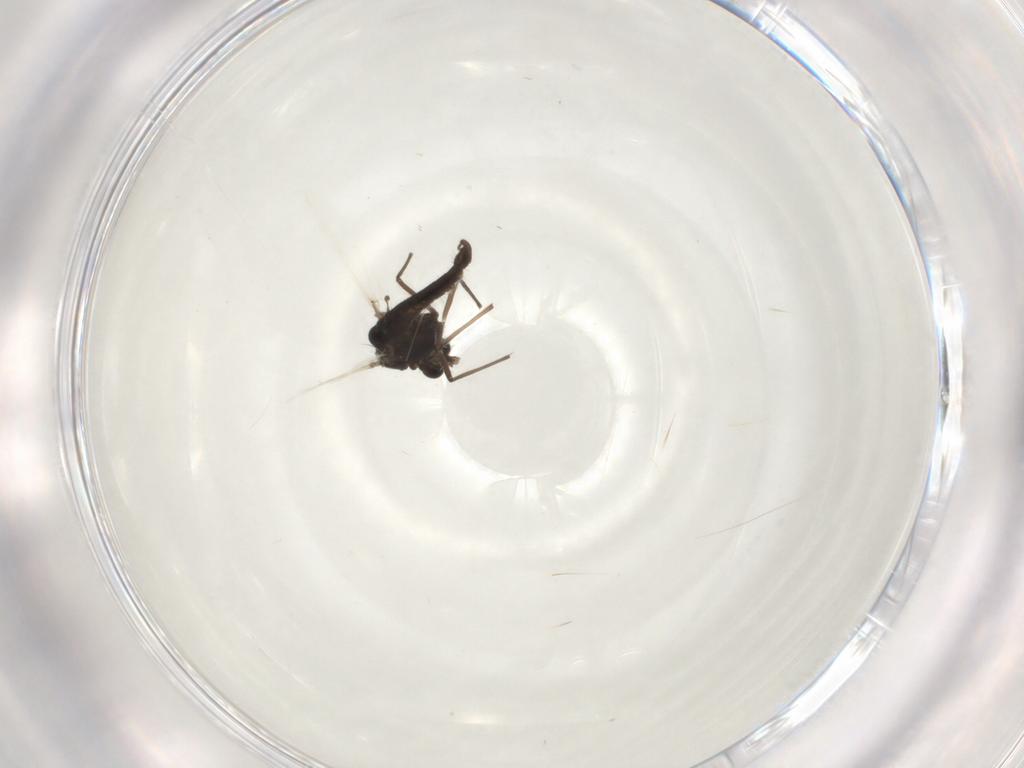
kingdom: Animalia
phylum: Arthropoda
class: Insecta
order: Diptera
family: Chironomidae
